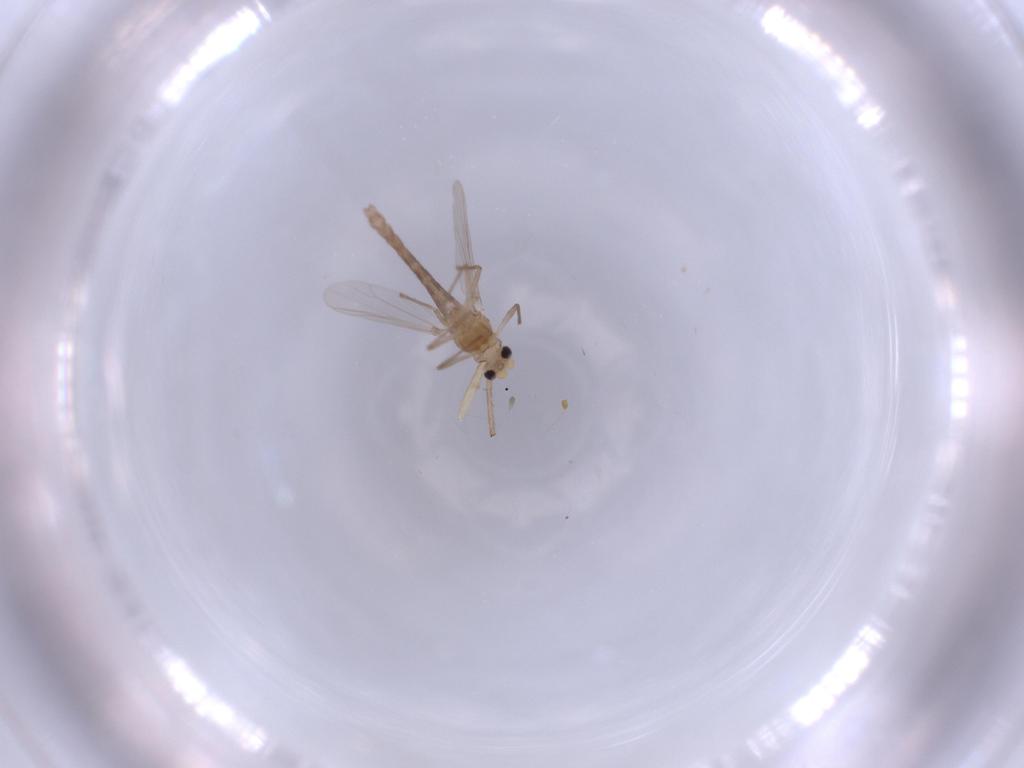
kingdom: Animalia
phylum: Arthropoda
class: Insecta
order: Diptera
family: Chironomidae
